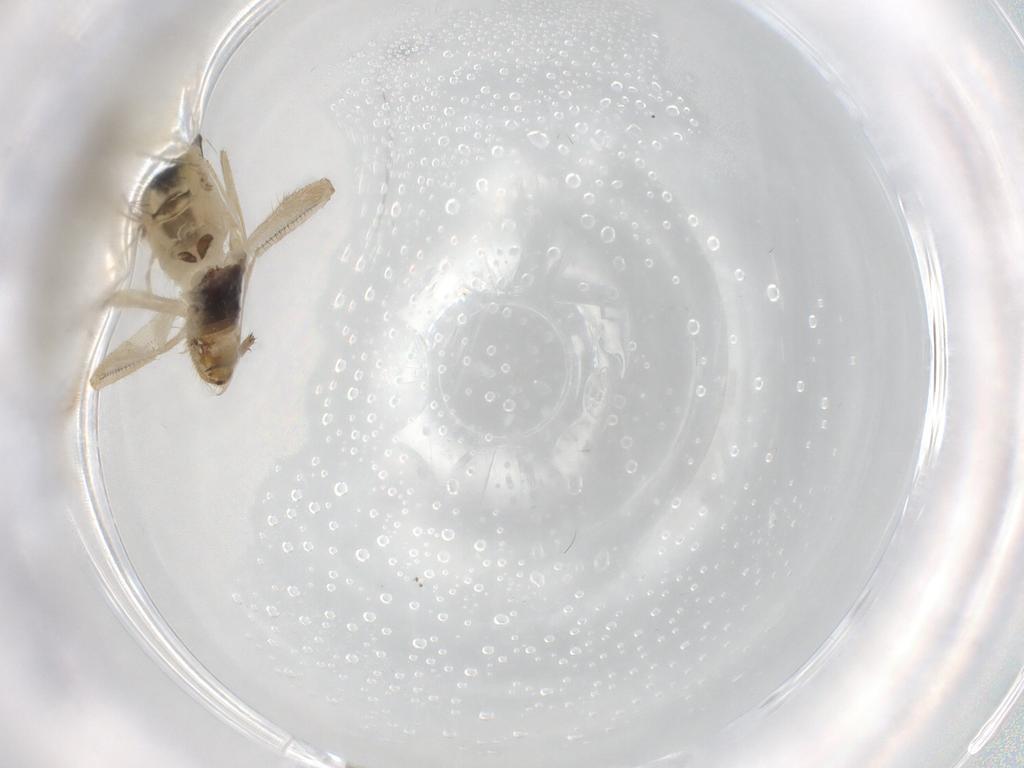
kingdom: Animalia
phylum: Arthropoda
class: Insecta
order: Diptera
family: Hybotidae
